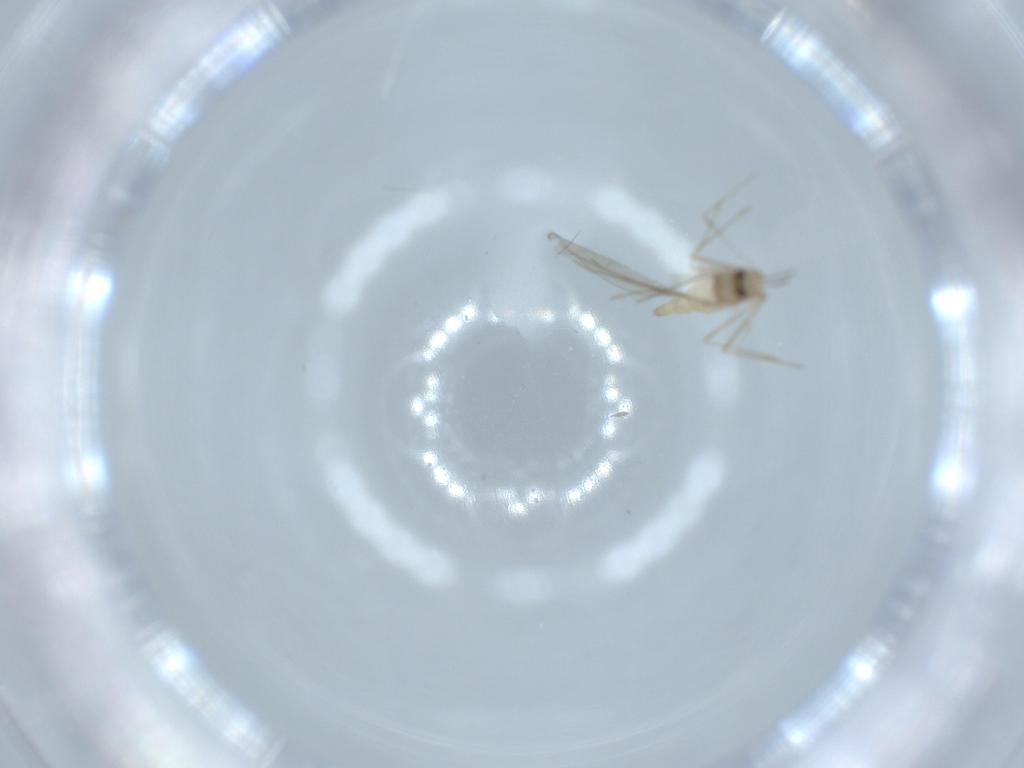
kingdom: Animalia
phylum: Arthropoda
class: Insecta
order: Diptera
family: Cecidomyiidae
